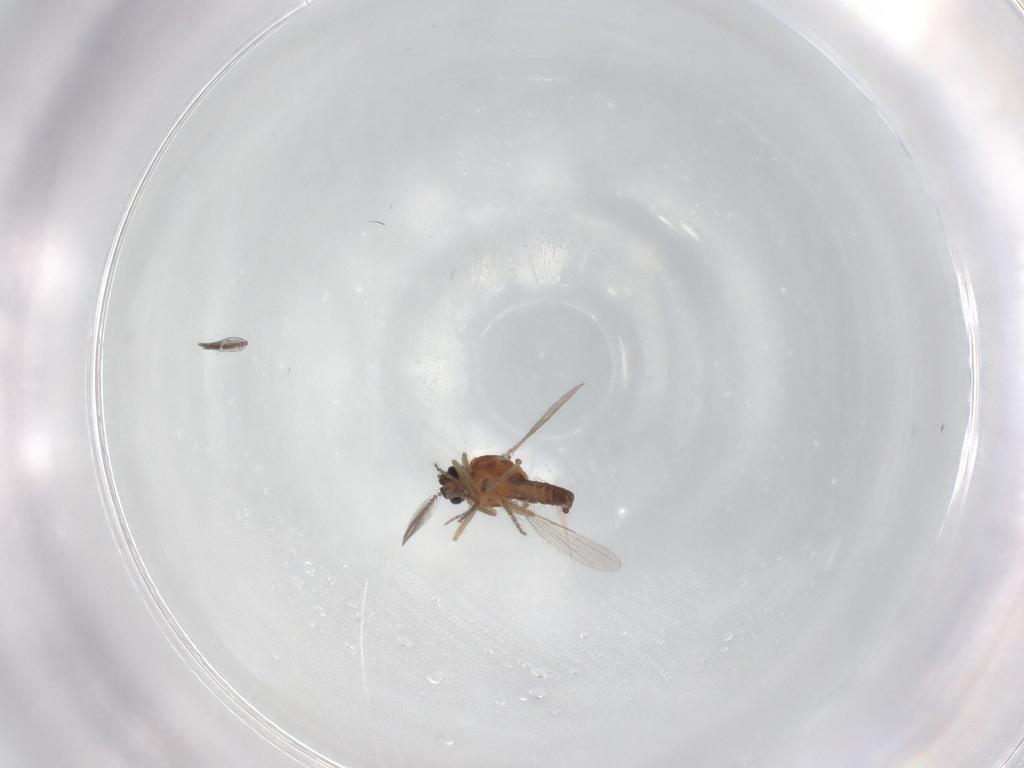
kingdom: Animalia
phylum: Arthropoda
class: Insecta
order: Diptera
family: Ceratopogonidae
